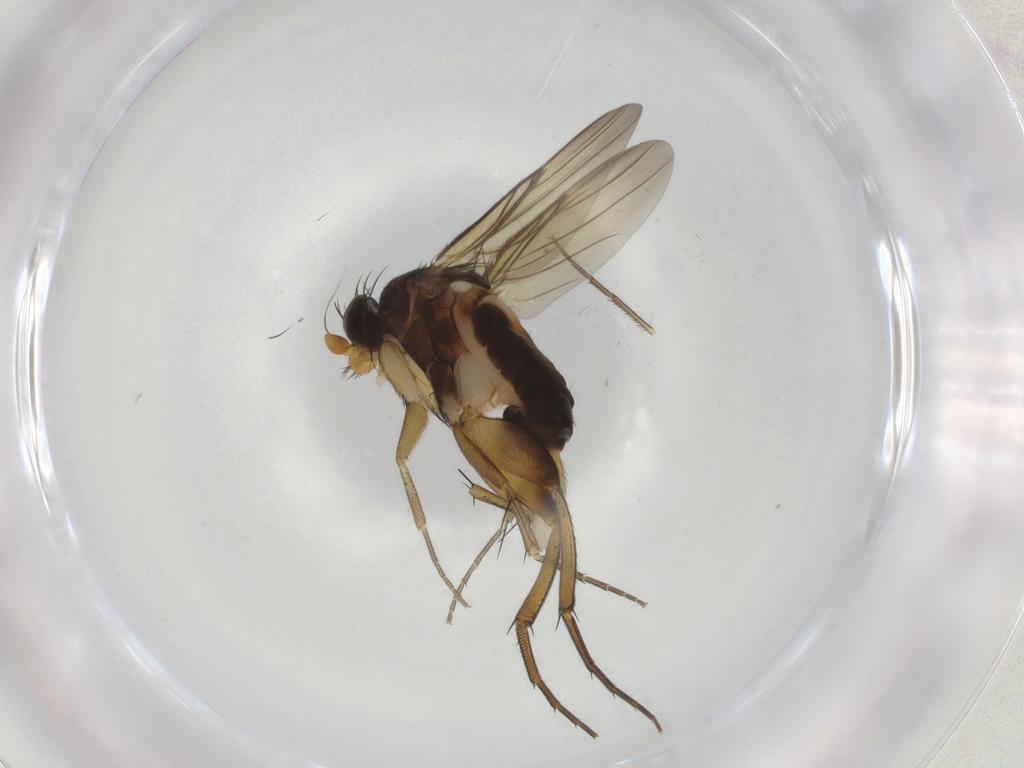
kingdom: Animalia
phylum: Arthropoda
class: Insecta
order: Diptera
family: Phoridae
